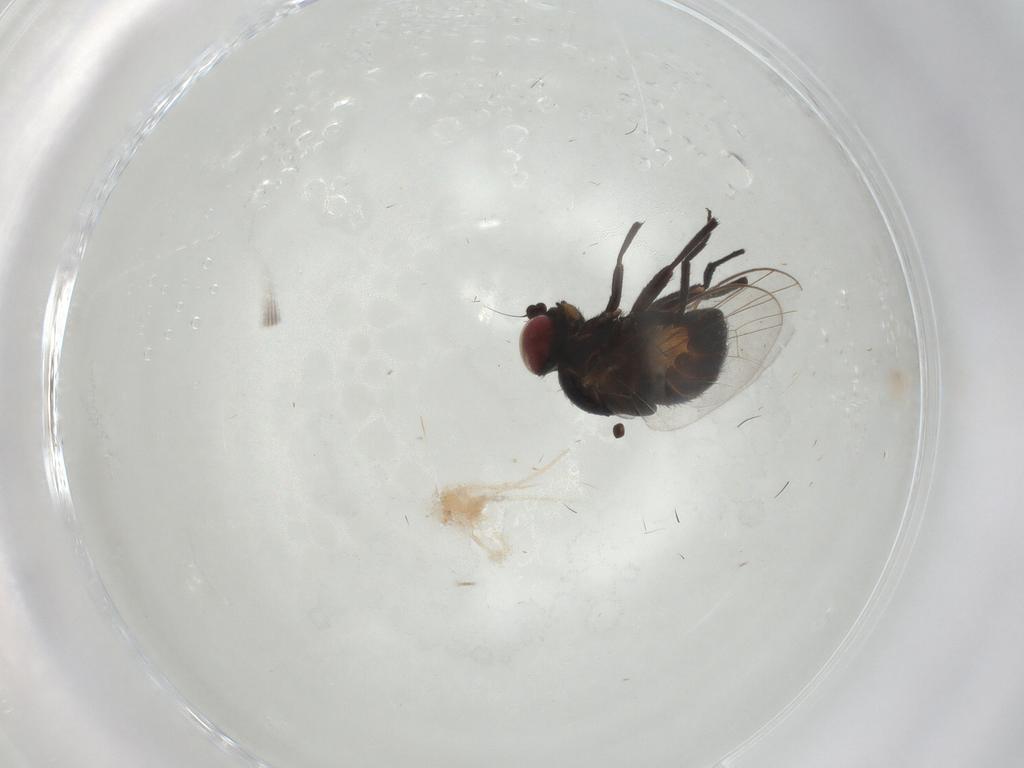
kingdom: Animalia
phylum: Arthropoda
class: Insecta
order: Diptera
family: Agromyzidae
